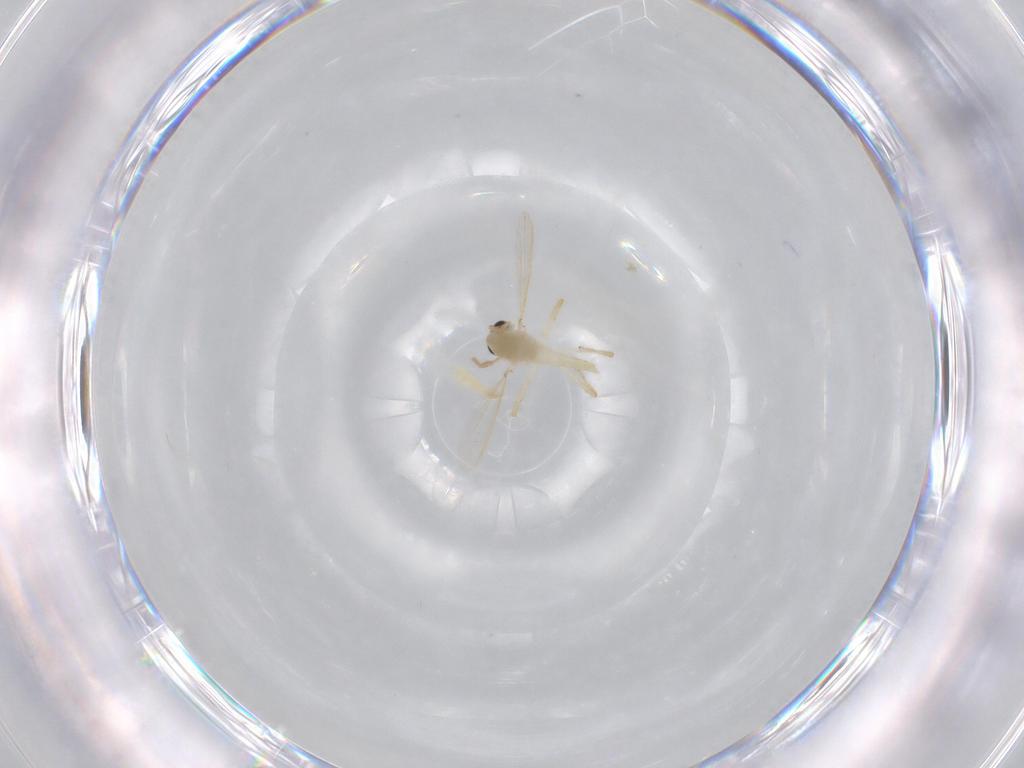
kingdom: Animalia
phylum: Arthropoda
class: Insecta
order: Diptera
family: Chironomidae
